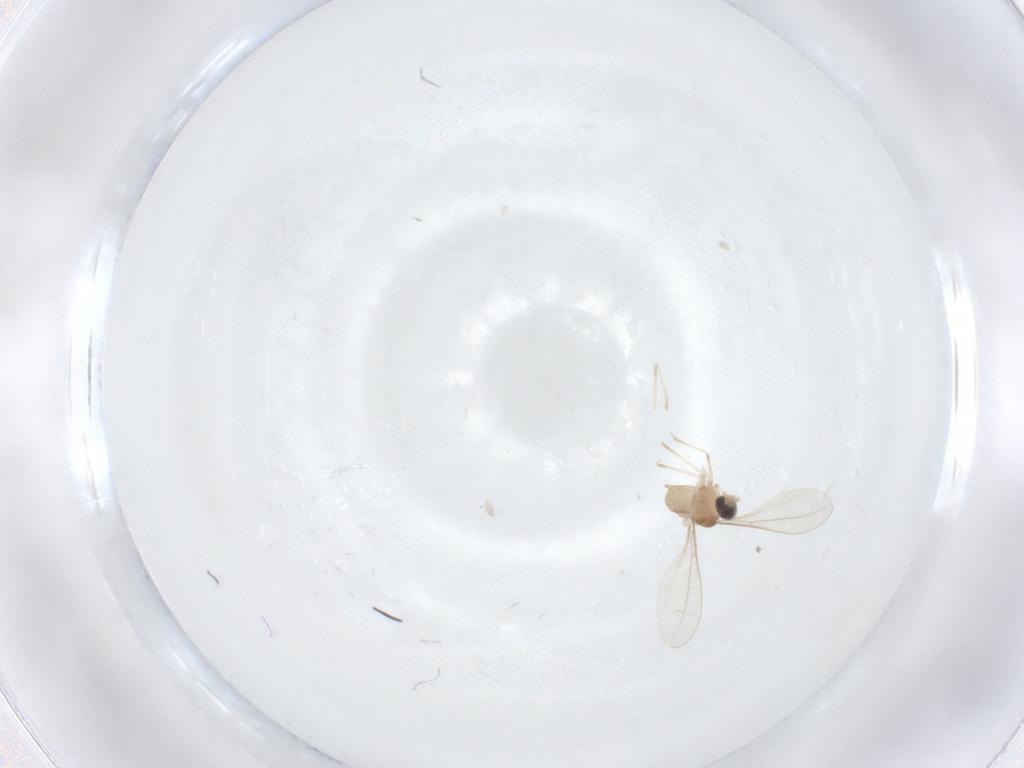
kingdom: Animalia
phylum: Arthropoda
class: Insecta
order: Diptera
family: Cecidomyiidae
